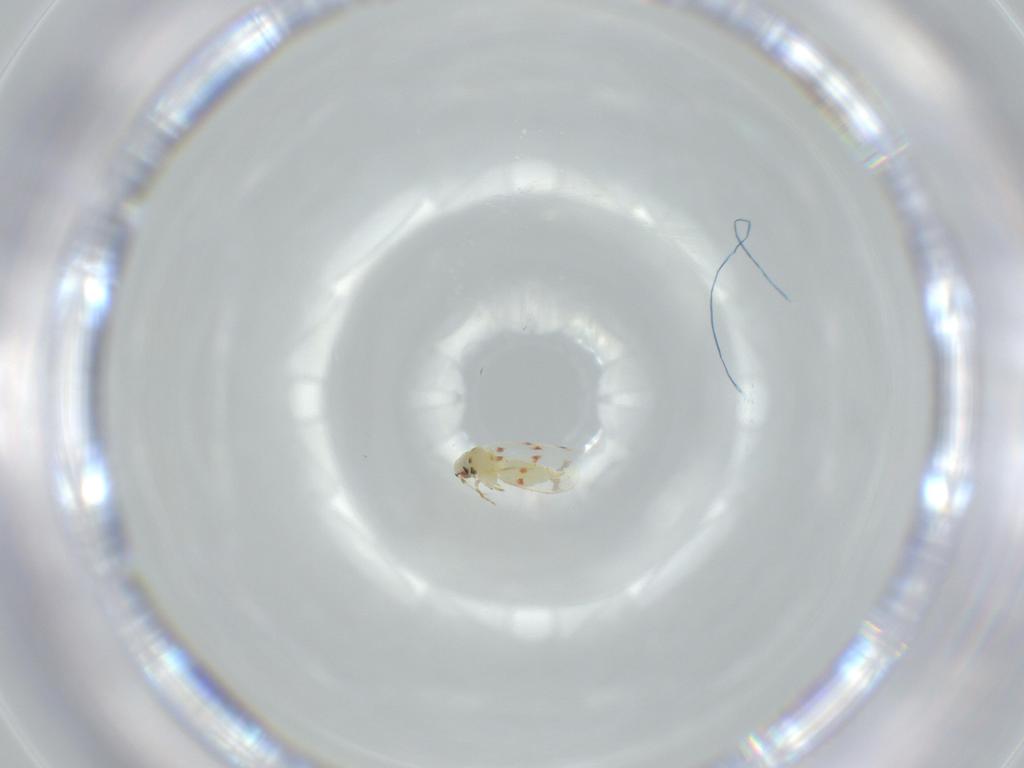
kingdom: Animalia
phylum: Arthropoda
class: Insecta
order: Hemiptera
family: Aleyrodidae
